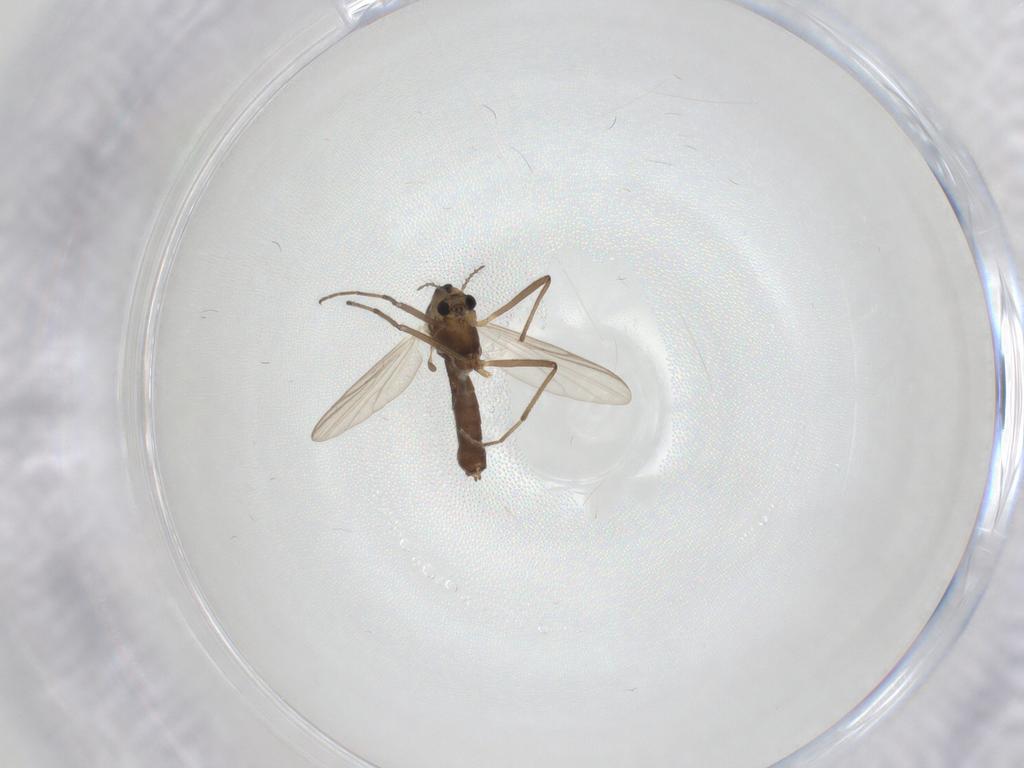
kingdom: Animalia
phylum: Arthropoda
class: Insecta
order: Diptera
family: Chironomidae
